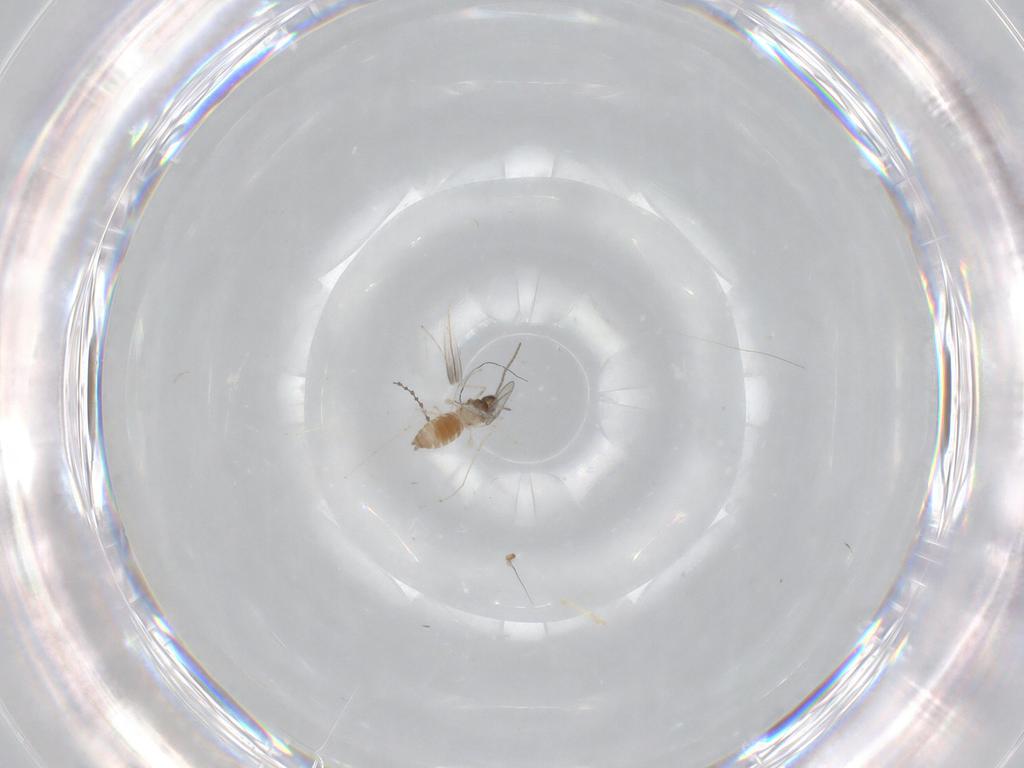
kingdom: Animalia
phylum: Arthropoda
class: Insecta
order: Diptera
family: Cecidomyiidae
